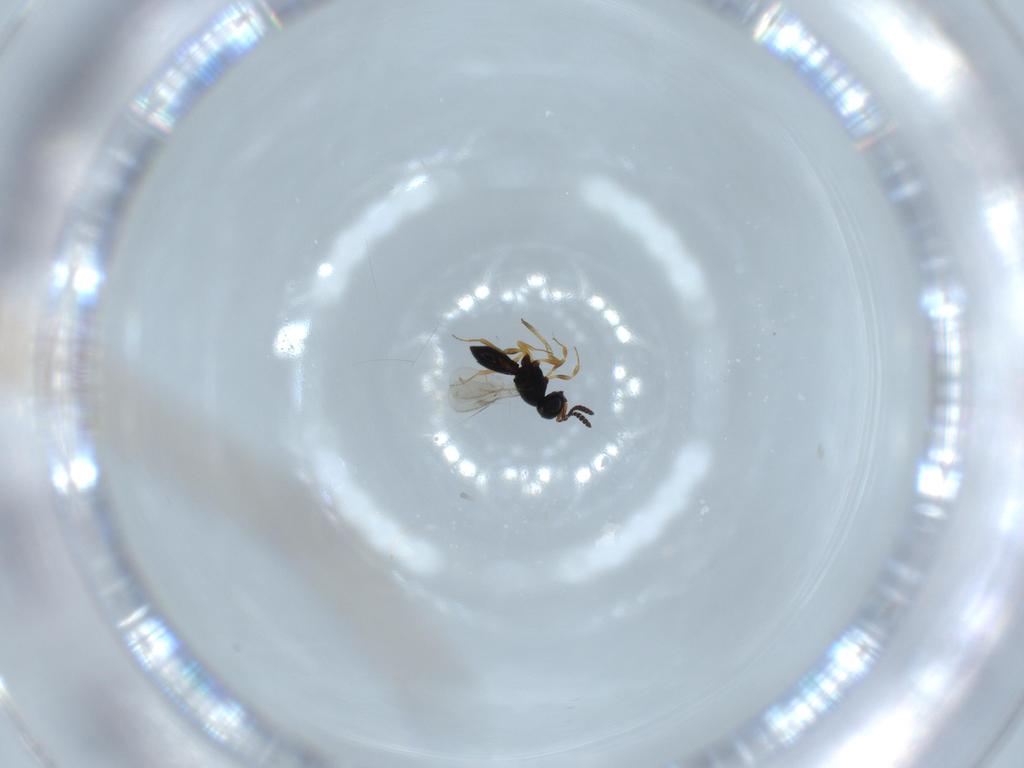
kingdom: Animalia
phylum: Arthropoda
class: Insecta
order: Hymenoptera
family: Scelionidae
